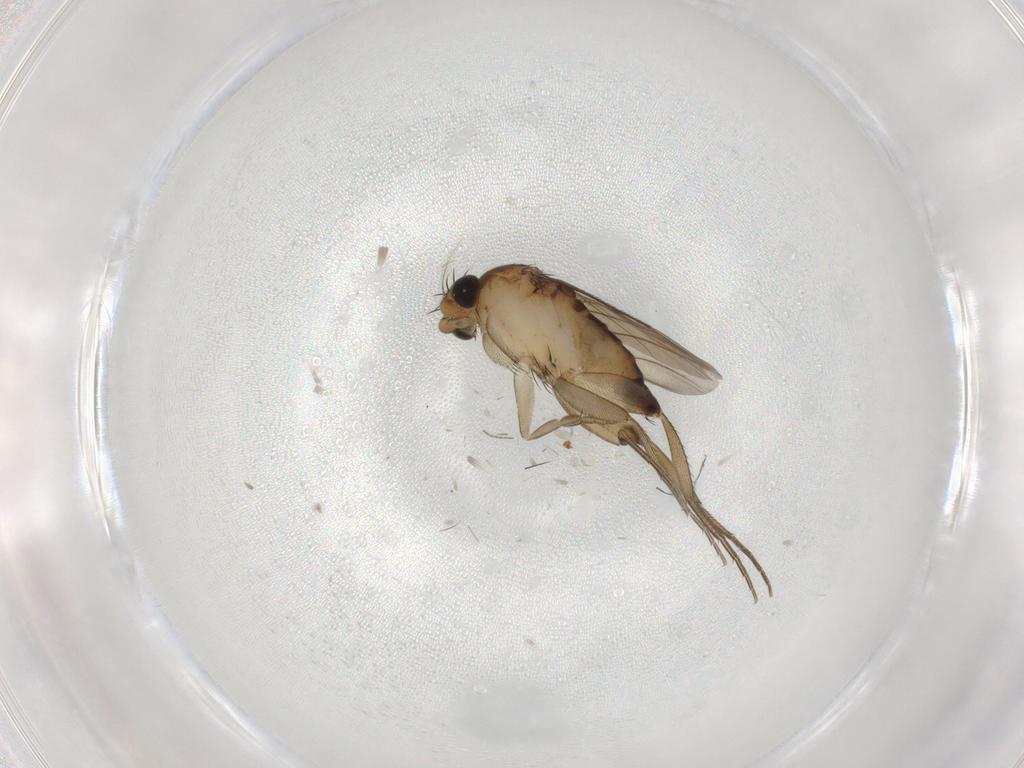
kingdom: Animalia
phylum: Arthropoda
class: Insecta
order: Diptera
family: Phoridae
